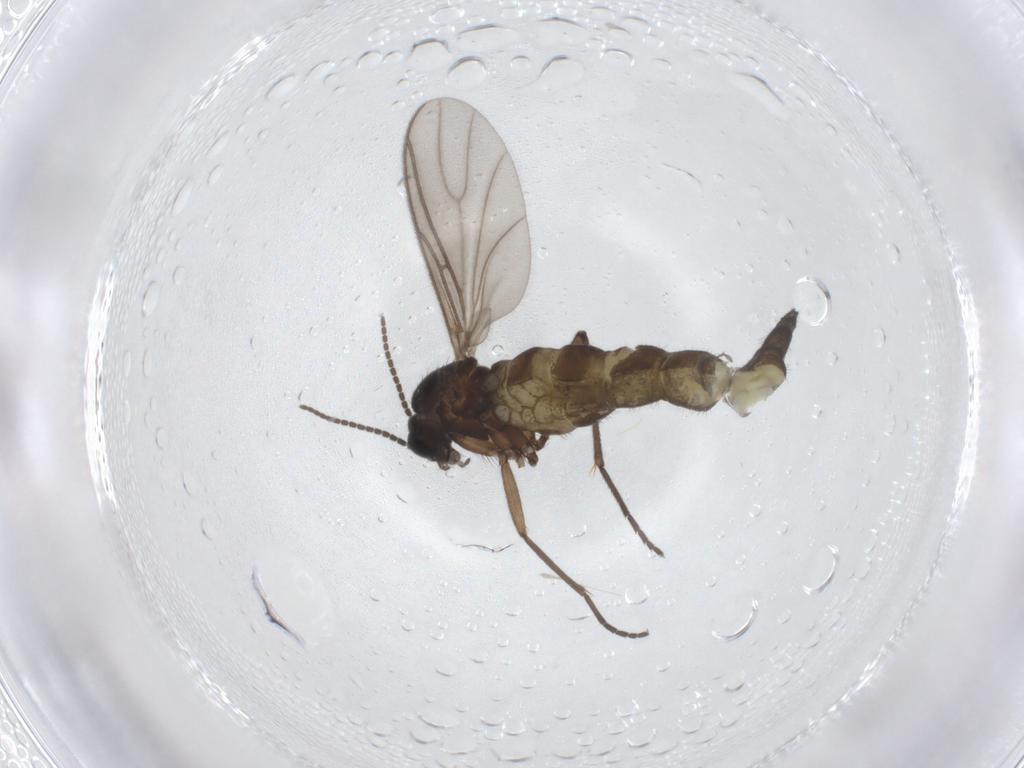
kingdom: Animalia
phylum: Arthropoda
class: Insecta
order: Diptera
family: Sciaridae
